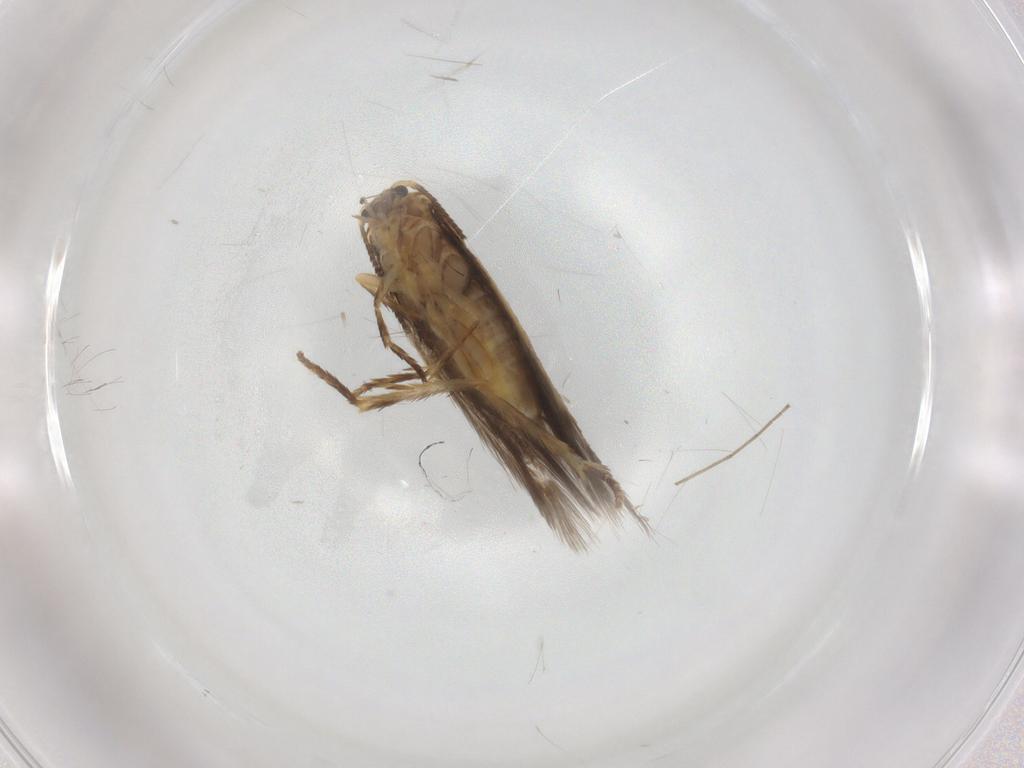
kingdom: Animalia
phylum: Arthropoda
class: Insecta
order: Lepidoptera
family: Nepticulidae
